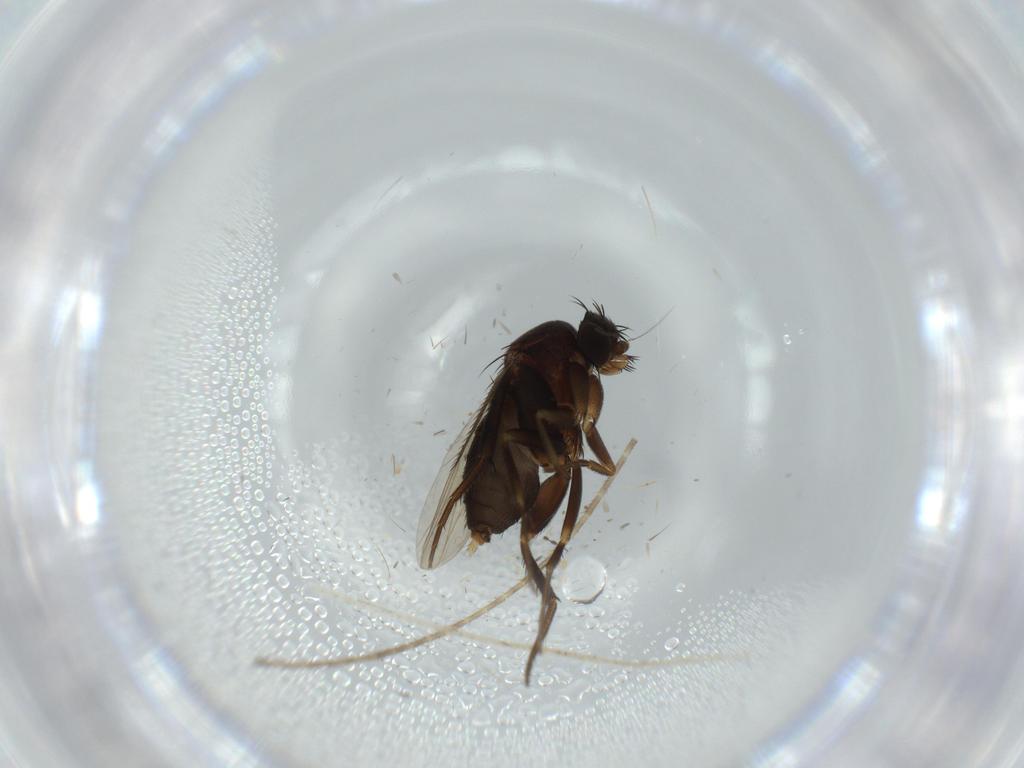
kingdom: Animalia
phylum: Arthropoda
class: Insecta
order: Diptera
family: Phoridae
